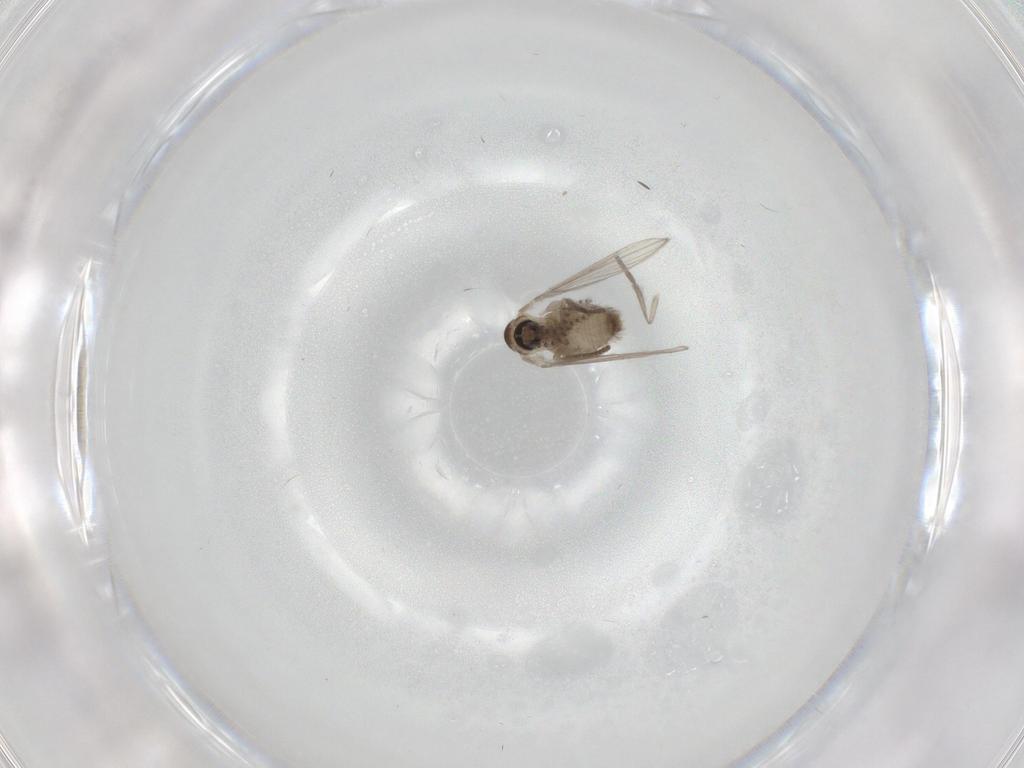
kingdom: Animalia
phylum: Arthropoda
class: Insecta
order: Diptera
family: Psychodidae
